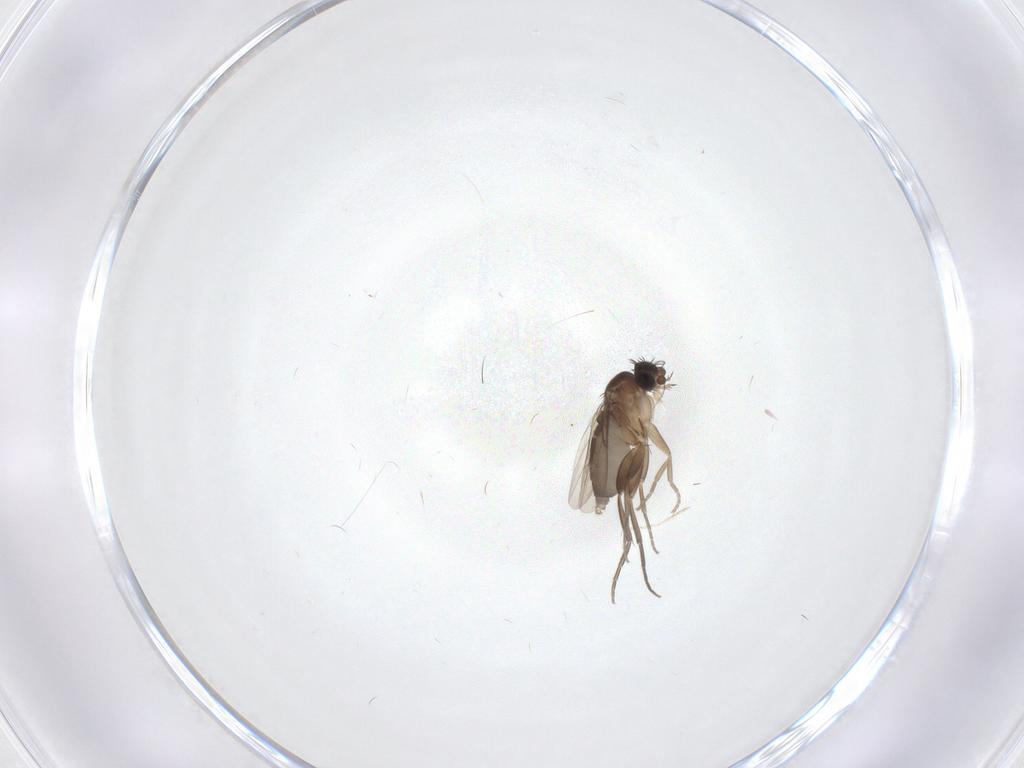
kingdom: Animalia
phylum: Arthropoda
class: Insecta
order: Diptera
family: Phoridae
